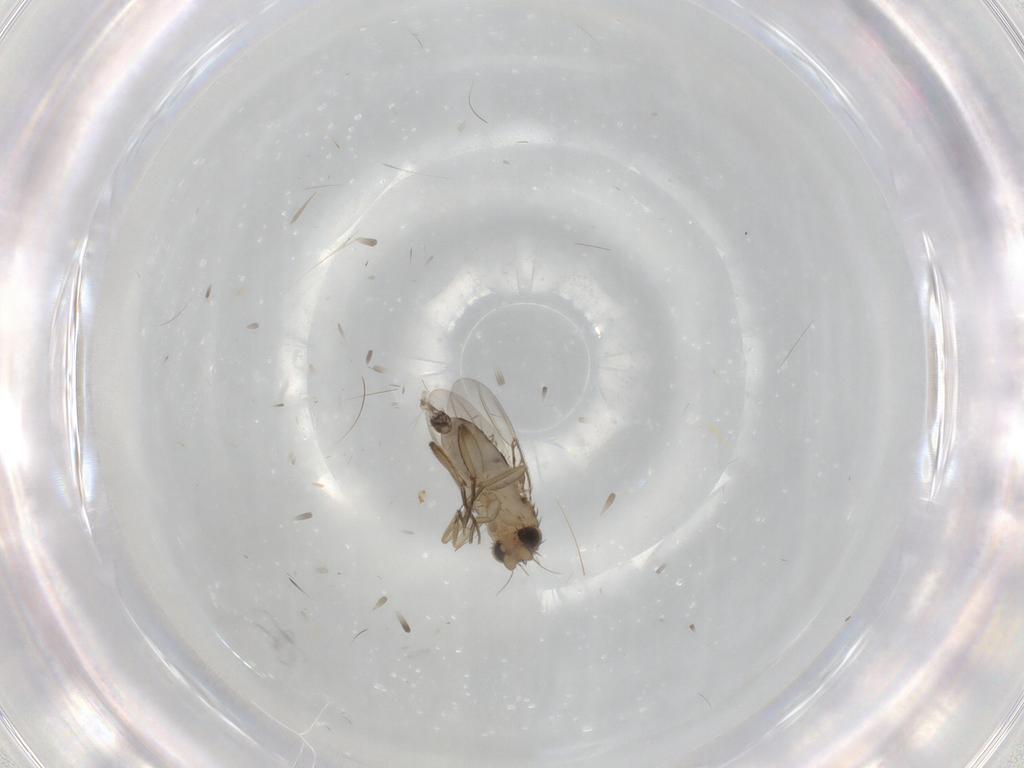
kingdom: Animalia
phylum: Arthropoda
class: Insecta
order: Diptera
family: Phoridae
